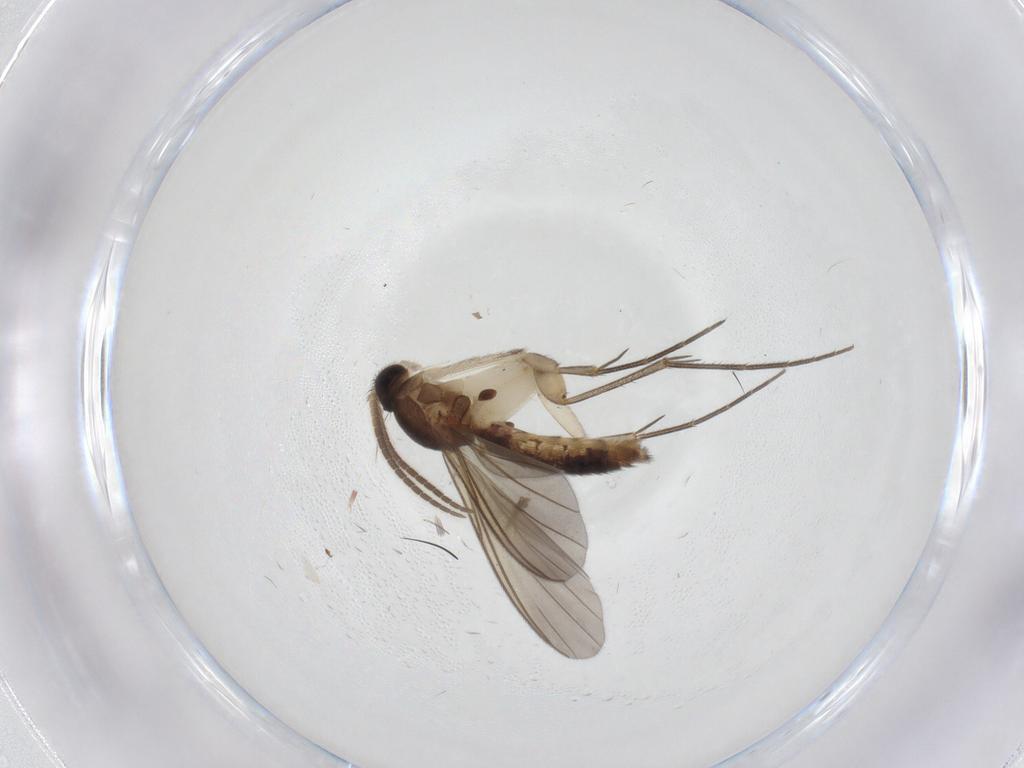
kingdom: Animalia
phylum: Arthropoda
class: Insecta
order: Diptera
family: Mycetophilidae
